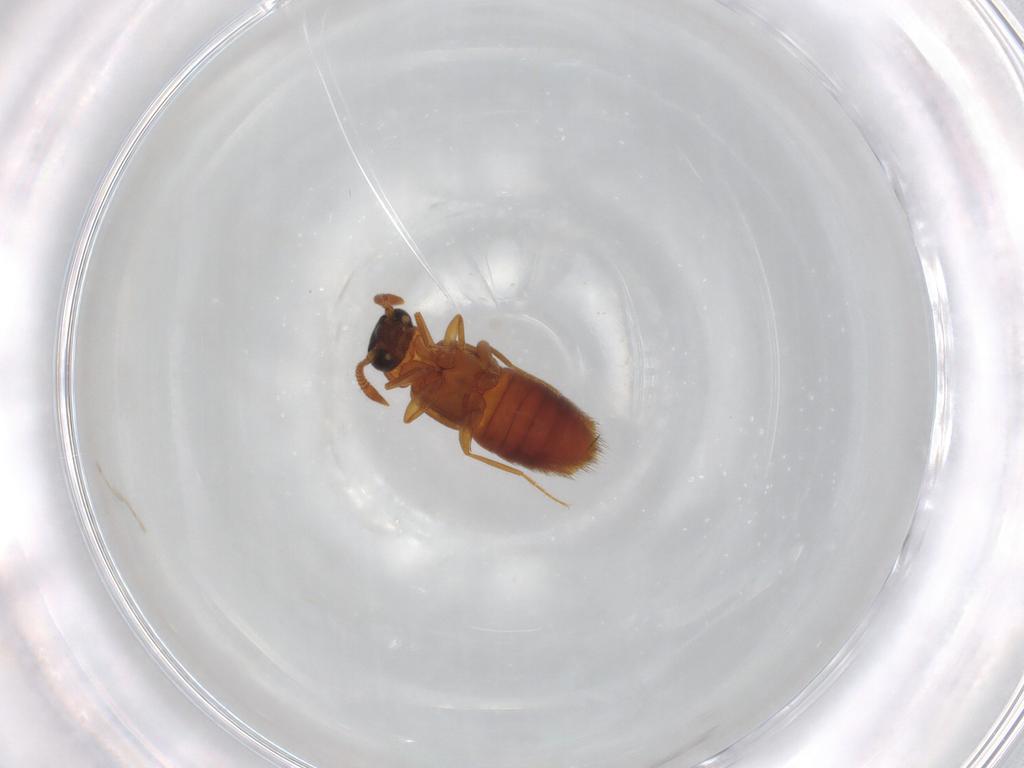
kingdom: Animalia
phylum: Arthropoda
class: Insecta
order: Coleoptera
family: Staphylinidae
